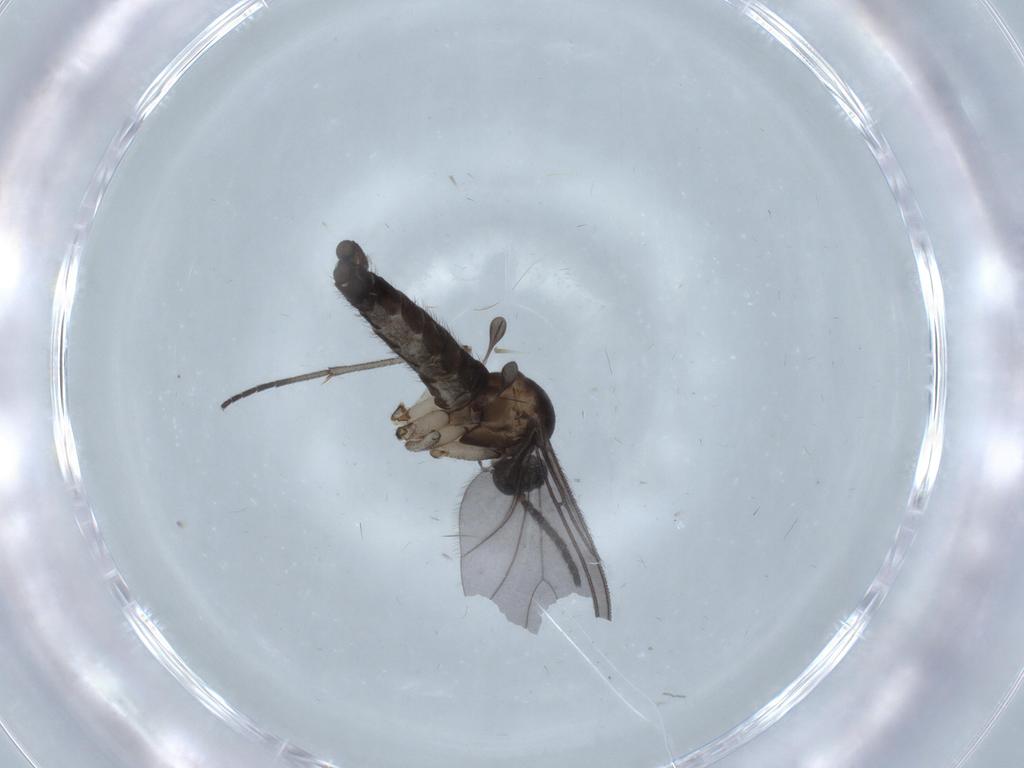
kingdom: Animalia
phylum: Arthropoda
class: Insecta
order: Diptera
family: Sciaridae
